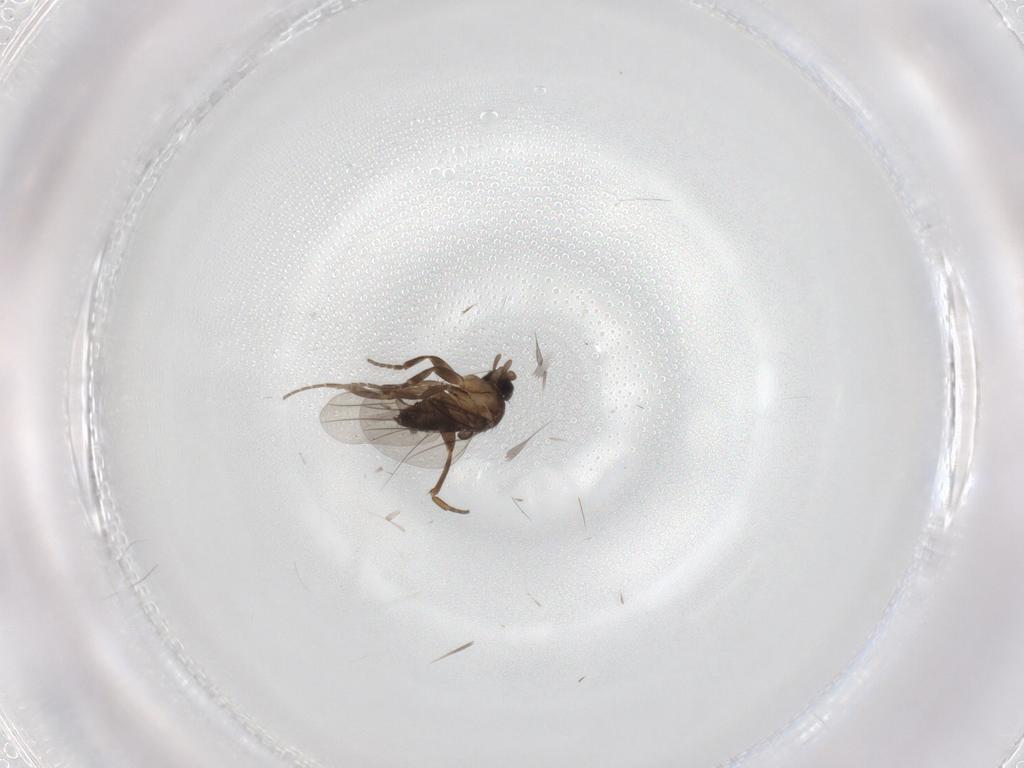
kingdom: Animalia
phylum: Arthropoda
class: Insecta
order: Diptera
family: Psychodidae
